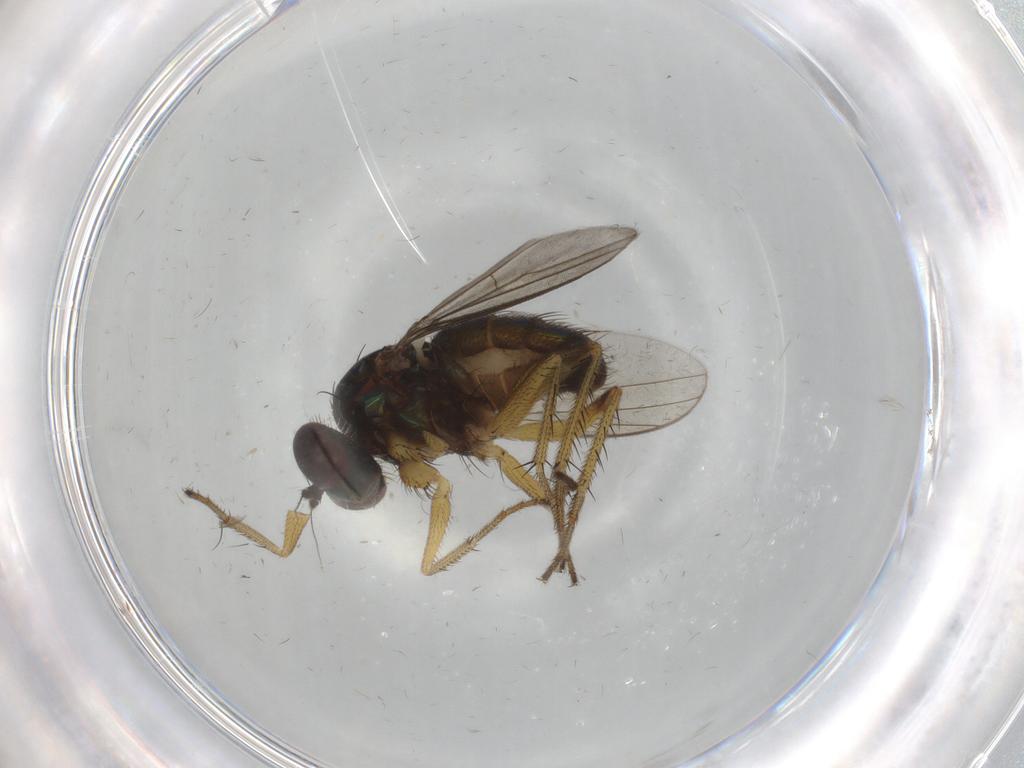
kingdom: Animalia
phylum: Arthropoda
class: Insecta
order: Diptera
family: Dolichopodidae
